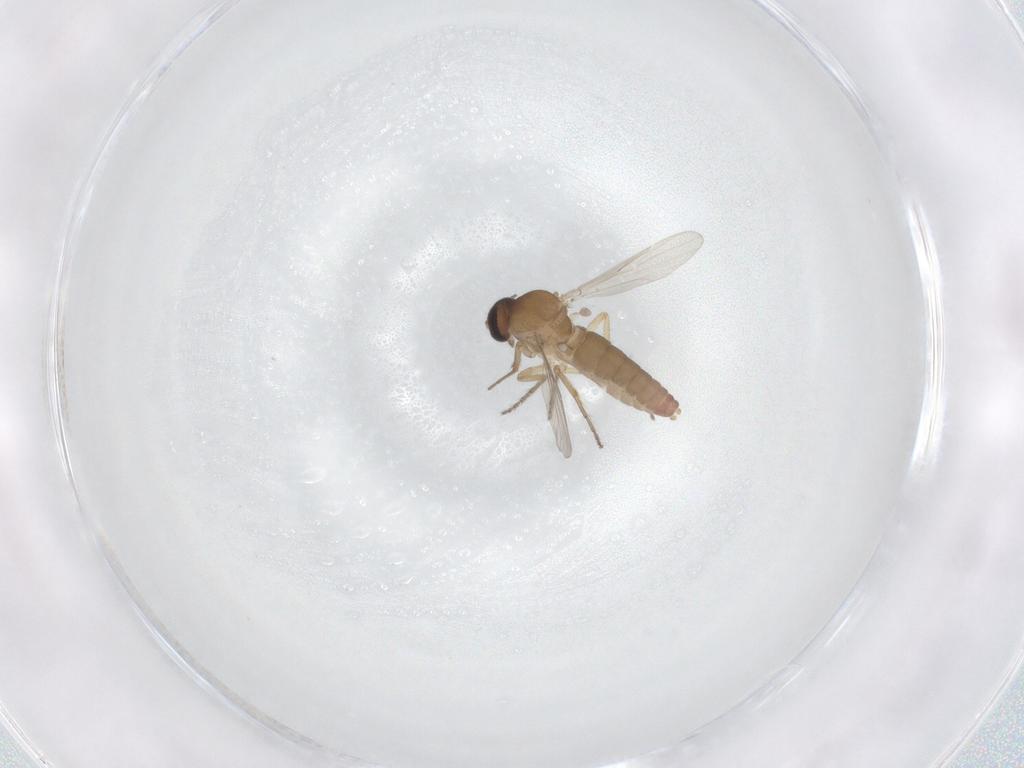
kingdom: Animalia
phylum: Arthropoda
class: Insecta
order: Diptera
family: Ceratopogonidae
